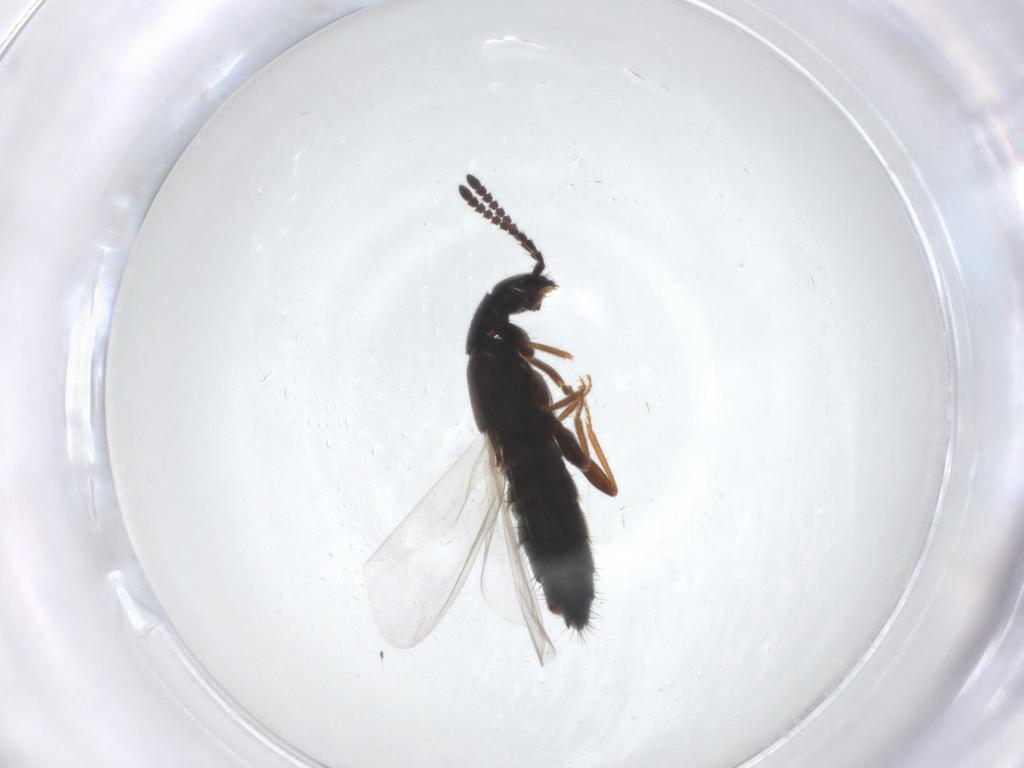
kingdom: Animalia
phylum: Arthropoda
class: Insecta
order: Coleoptera
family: Staphylinidae
